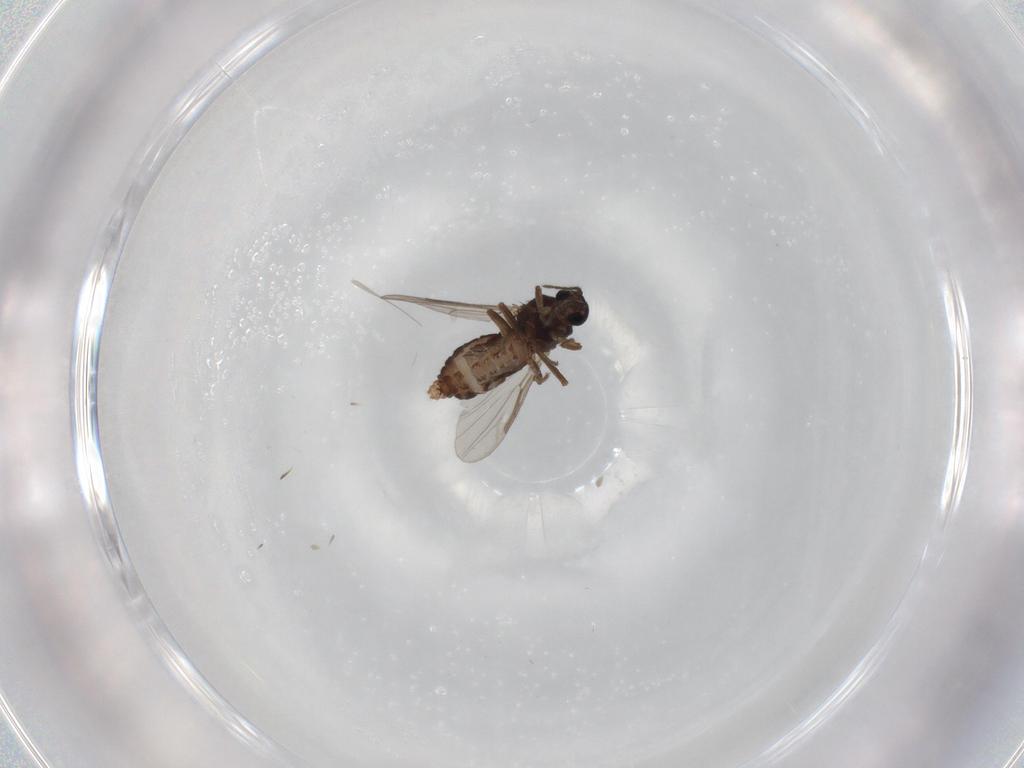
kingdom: Animalia
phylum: Arthropoda
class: Insecta
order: Diptera
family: Ceratopogonidae
